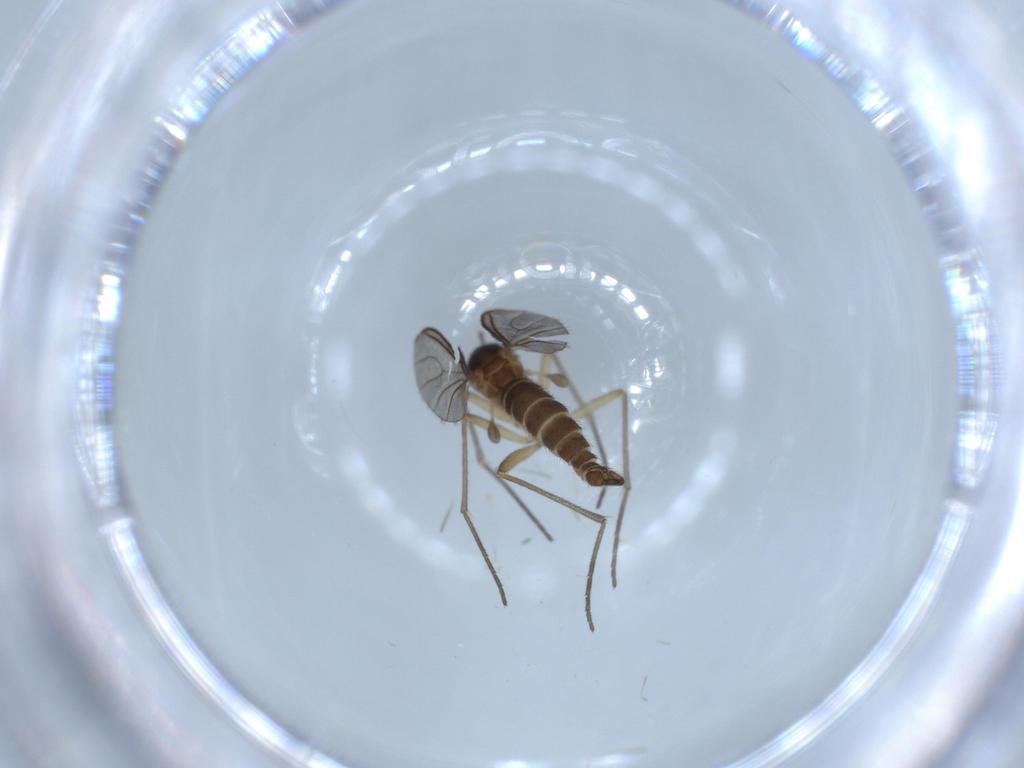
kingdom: Animalia
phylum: Arthropoda
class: Insecta
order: Diptera
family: Sciaridae
